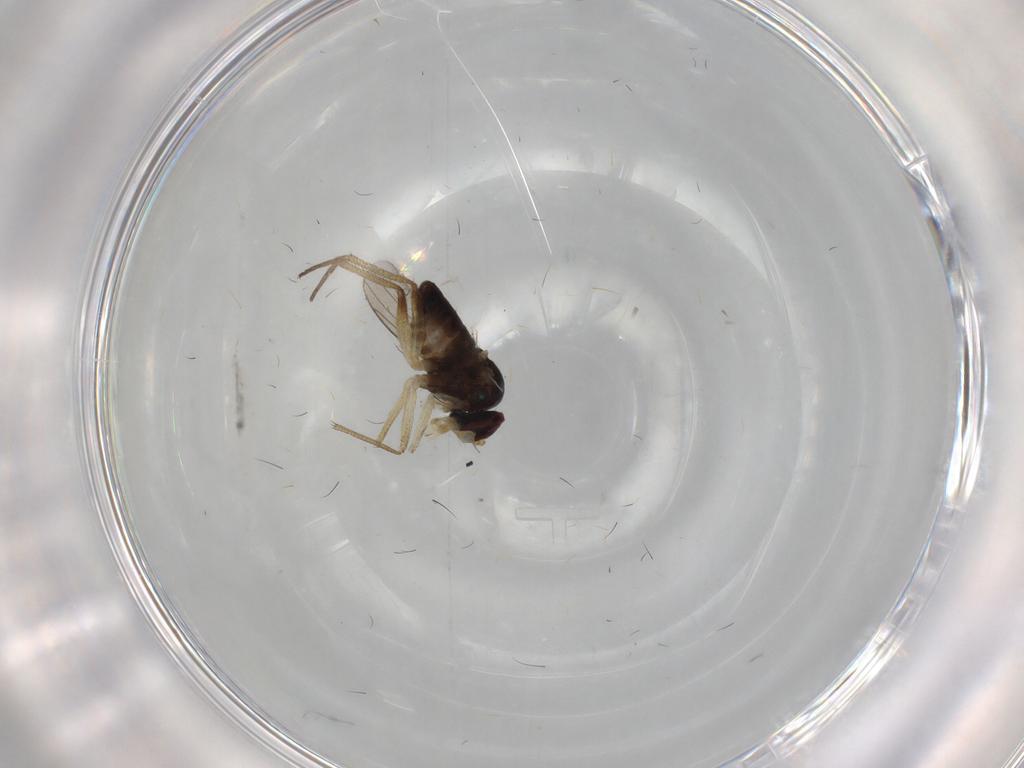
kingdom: Animalia
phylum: Arthropoda
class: Insecta
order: Diptera
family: Dolichopodidae
